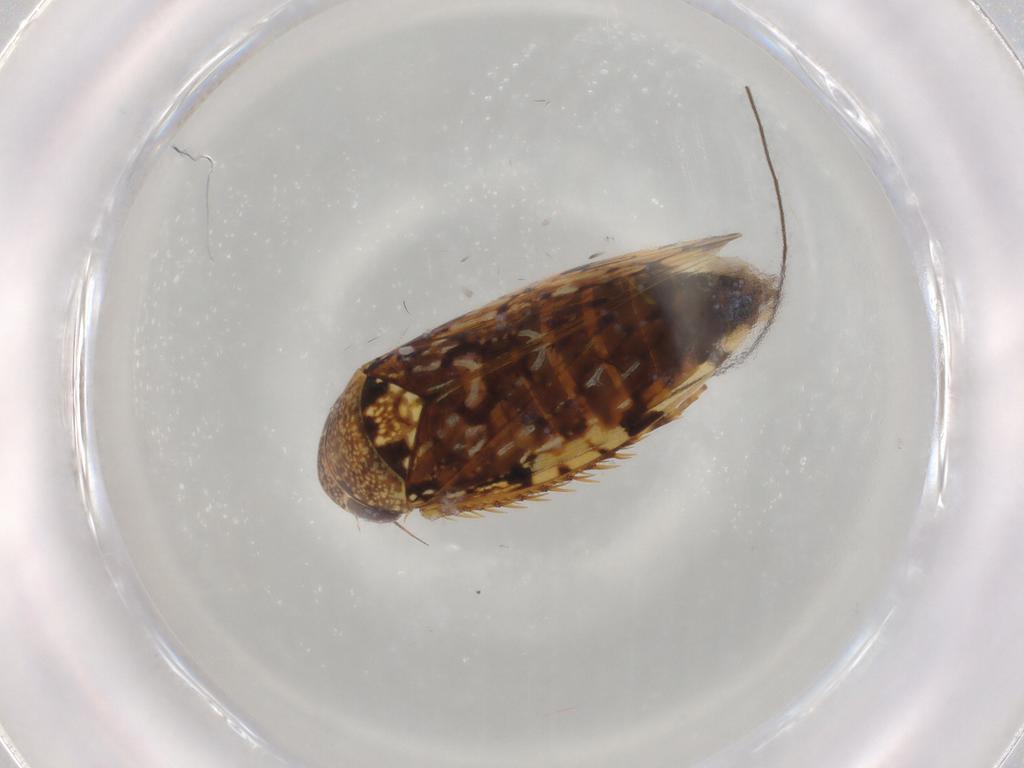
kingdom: Animalia
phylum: Arthropoda
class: Insecta
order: Hemiptera
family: Cicadellidae
